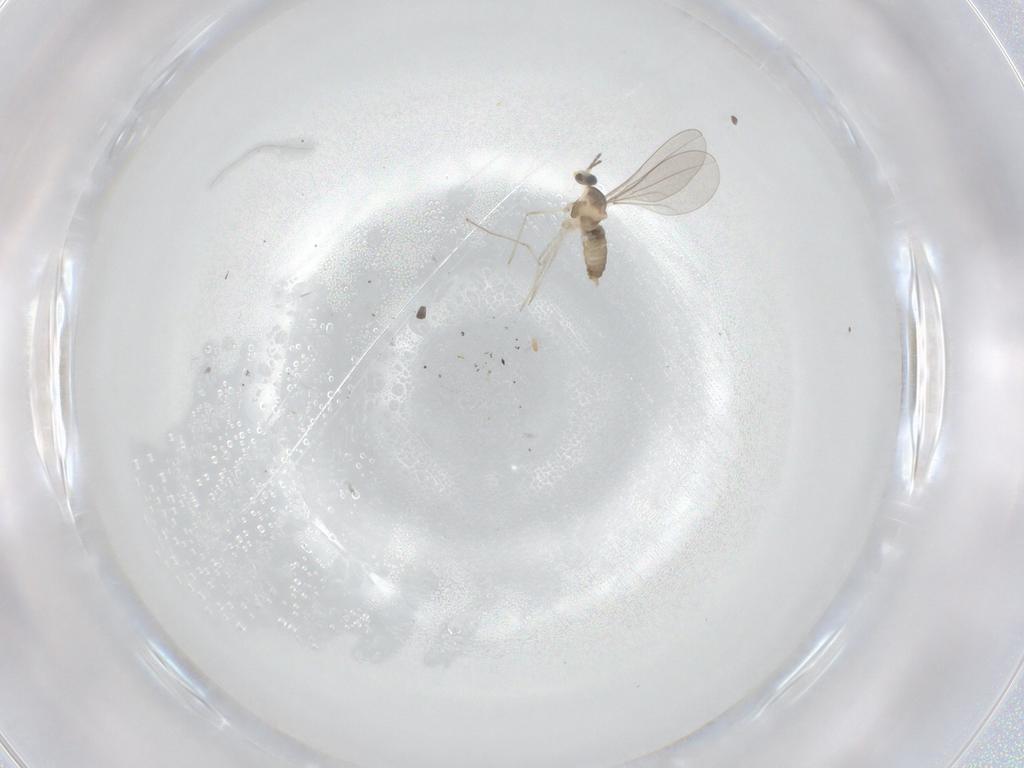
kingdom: Animalia
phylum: Arthropoda
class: Insecta
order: Diptera
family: Cecidomyiidae
